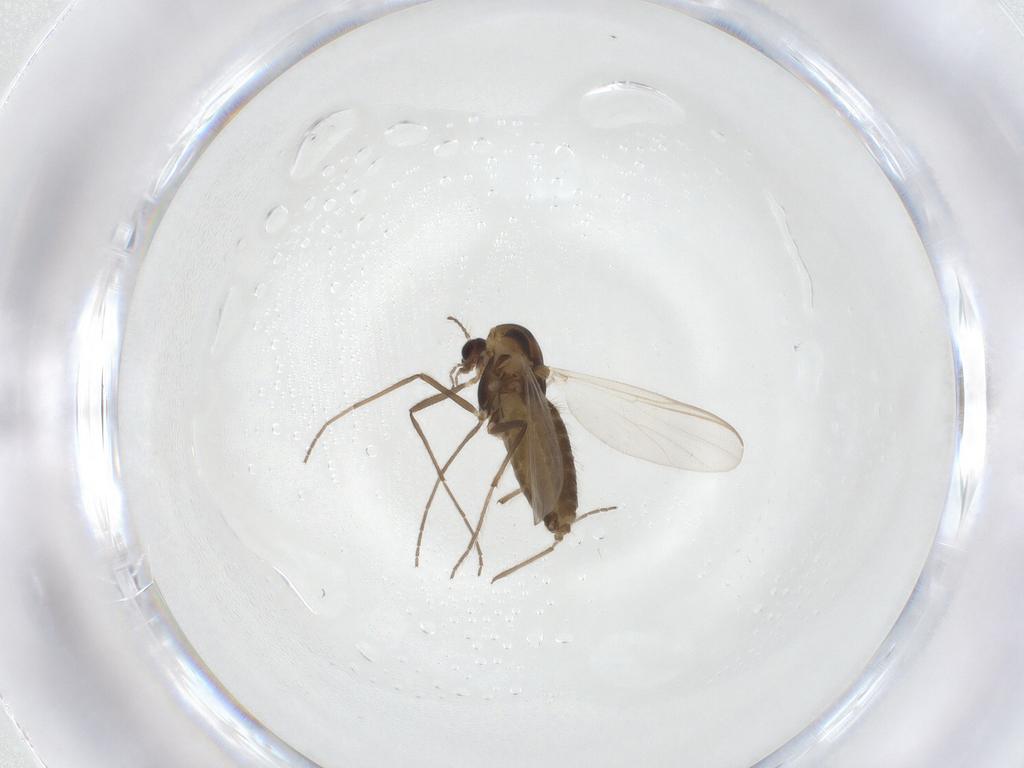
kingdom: Animalia
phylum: Arthropoda
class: Insecta
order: Diptera
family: Chironomidae
